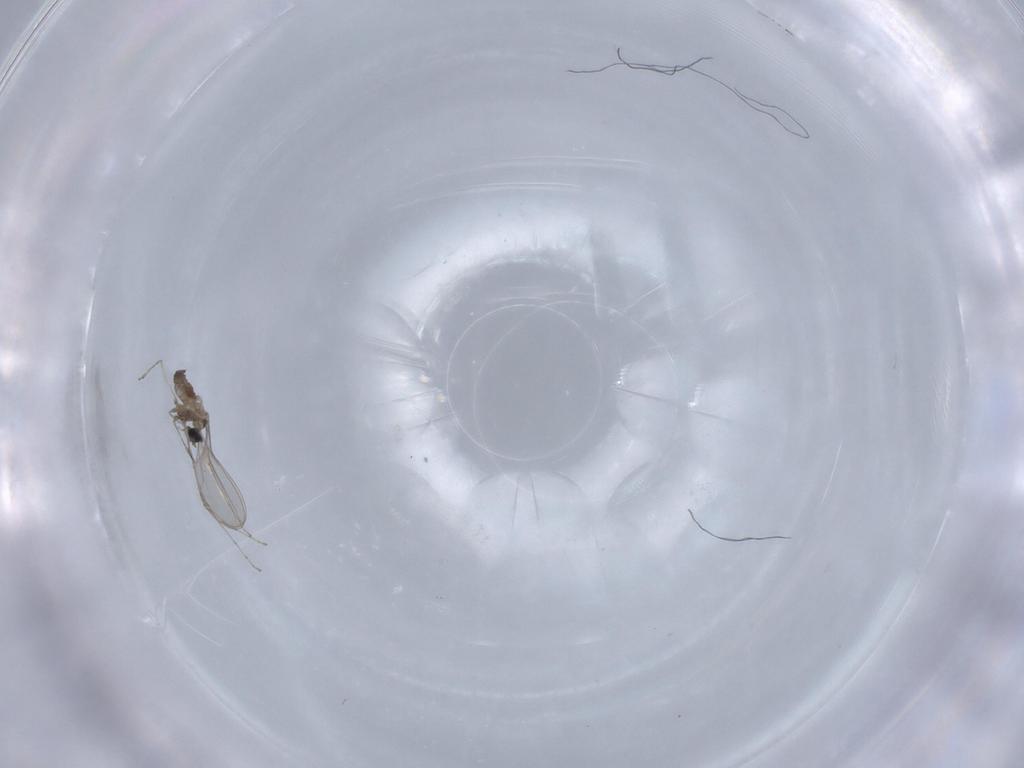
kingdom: Animalia
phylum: Arthropoda
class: Insecta
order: Diptera
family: Cecidomyiidae
